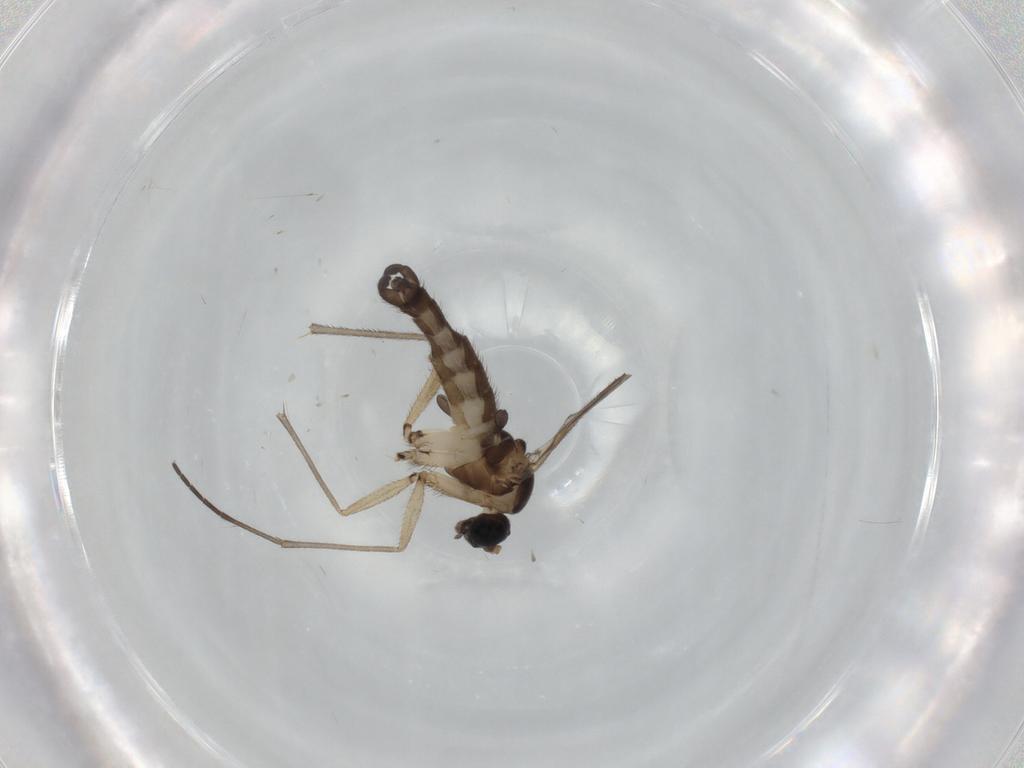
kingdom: Animalia
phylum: Arthropoda
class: Insecta
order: Diptera
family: Sciaridae
